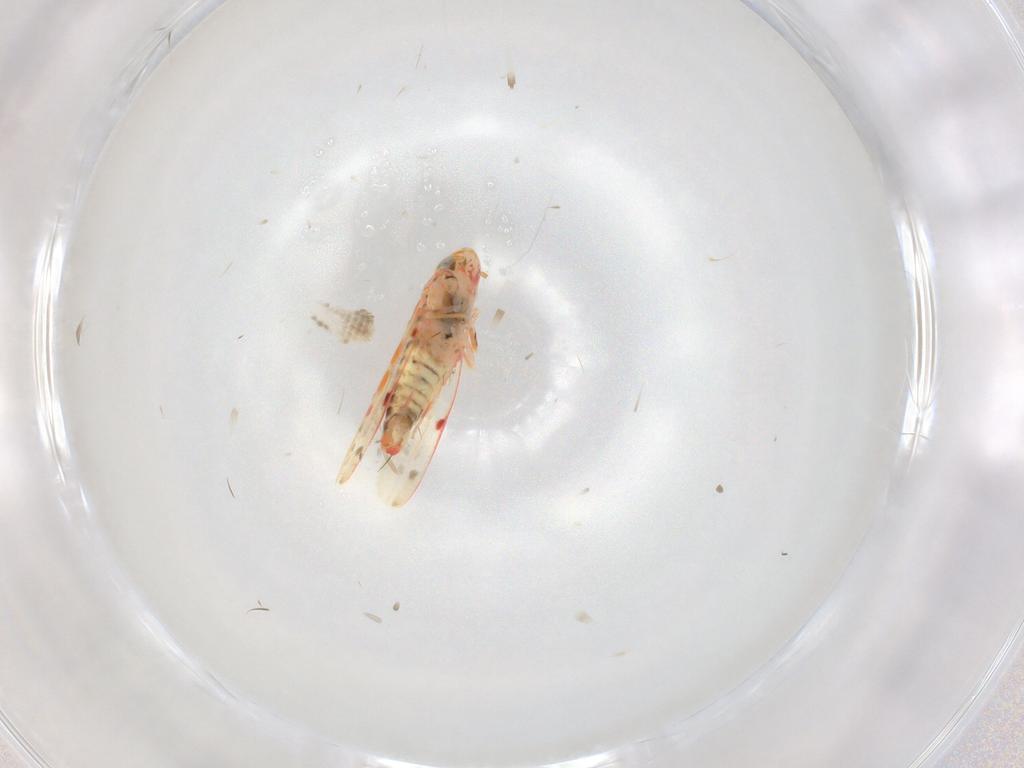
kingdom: Animalia
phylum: Arthropoda
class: Insecta
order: Hemiptera
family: Cicadellidae
